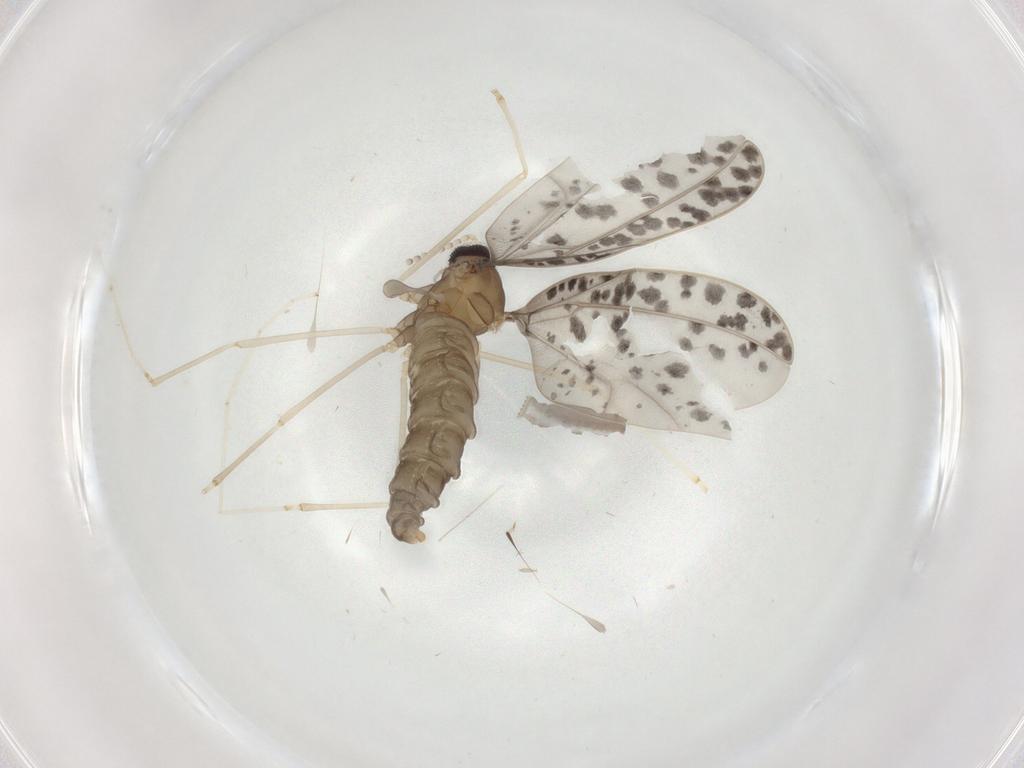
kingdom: Animalia
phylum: Arthropoda
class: Insecta
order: Diptera
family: Cecidomyiidae
